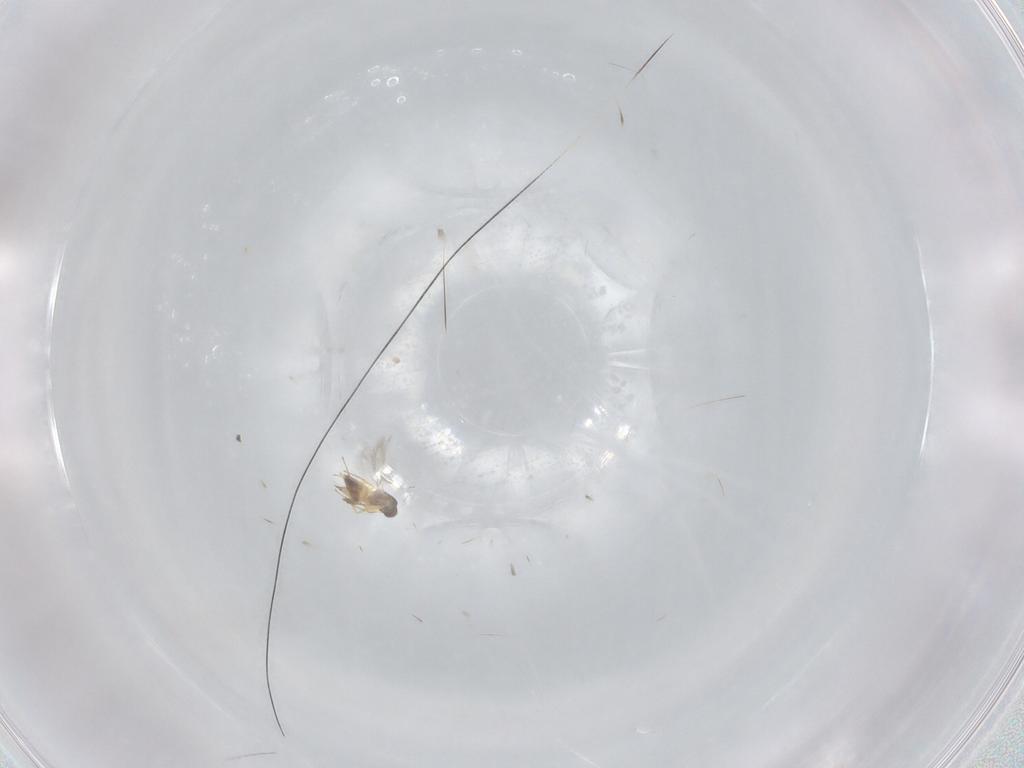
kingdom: Animalia
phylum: Arthropoda
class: Insecta
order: Hymenoptera
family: Mymaridae
